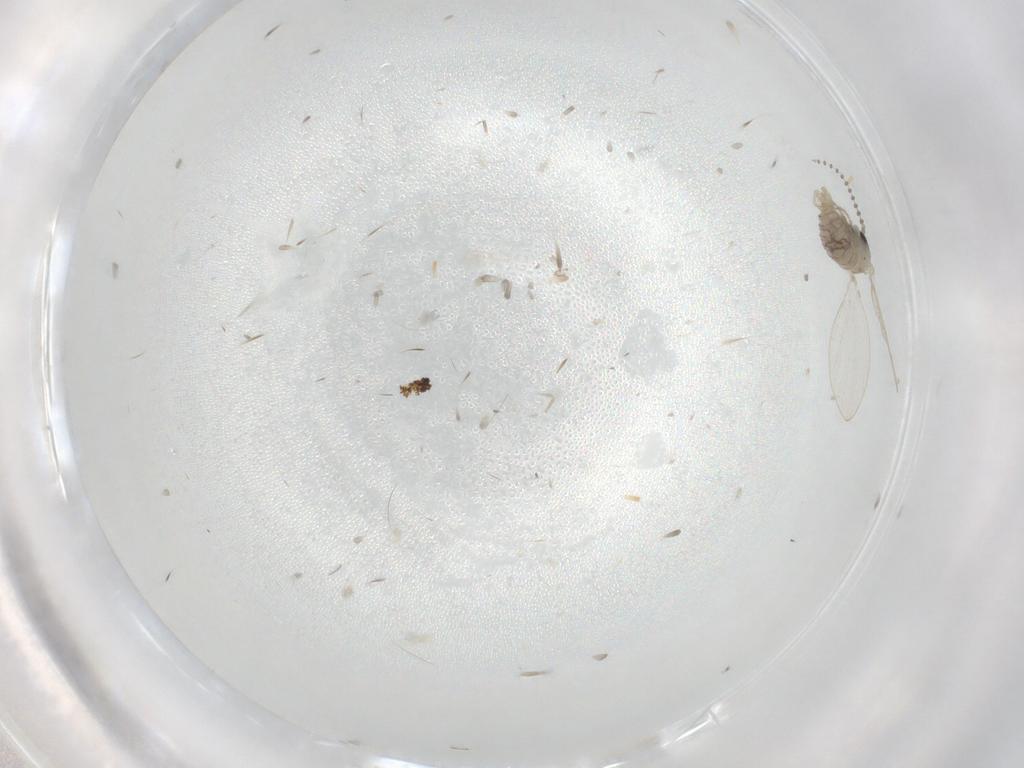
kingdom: Animalia
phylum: Arthropoda
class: Insecta
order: Diptera
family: Psychodidae
